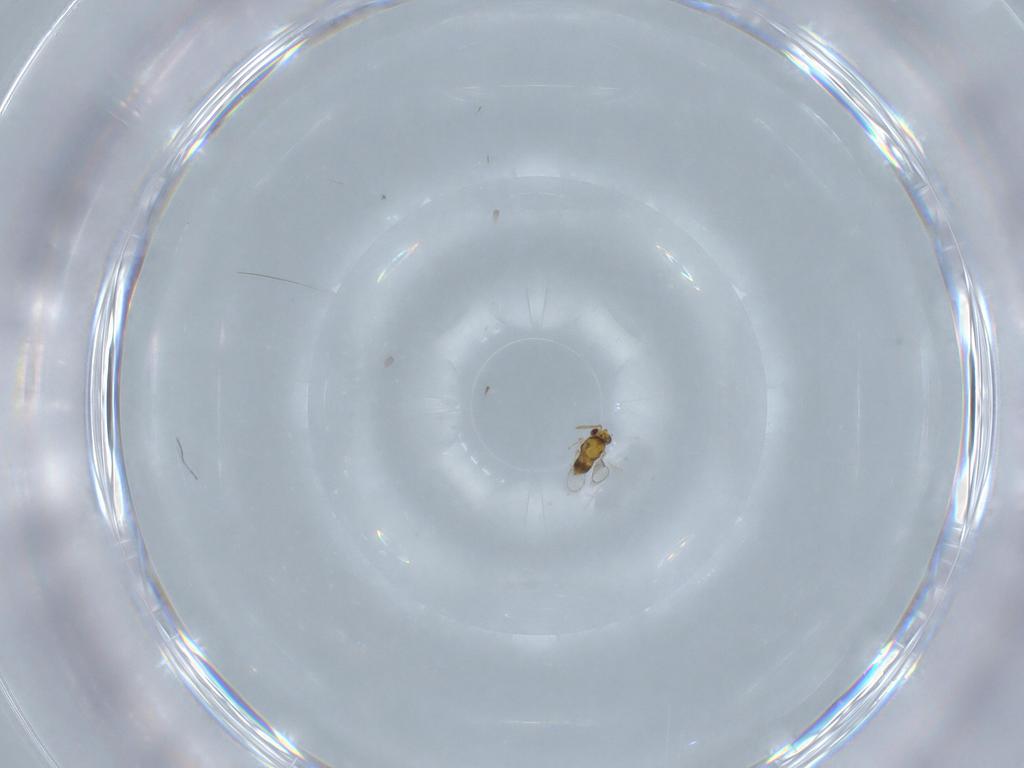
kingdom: Animalia
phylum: Arthropoda
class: Insecta
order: Hymenoptera
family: Aphelinidae
